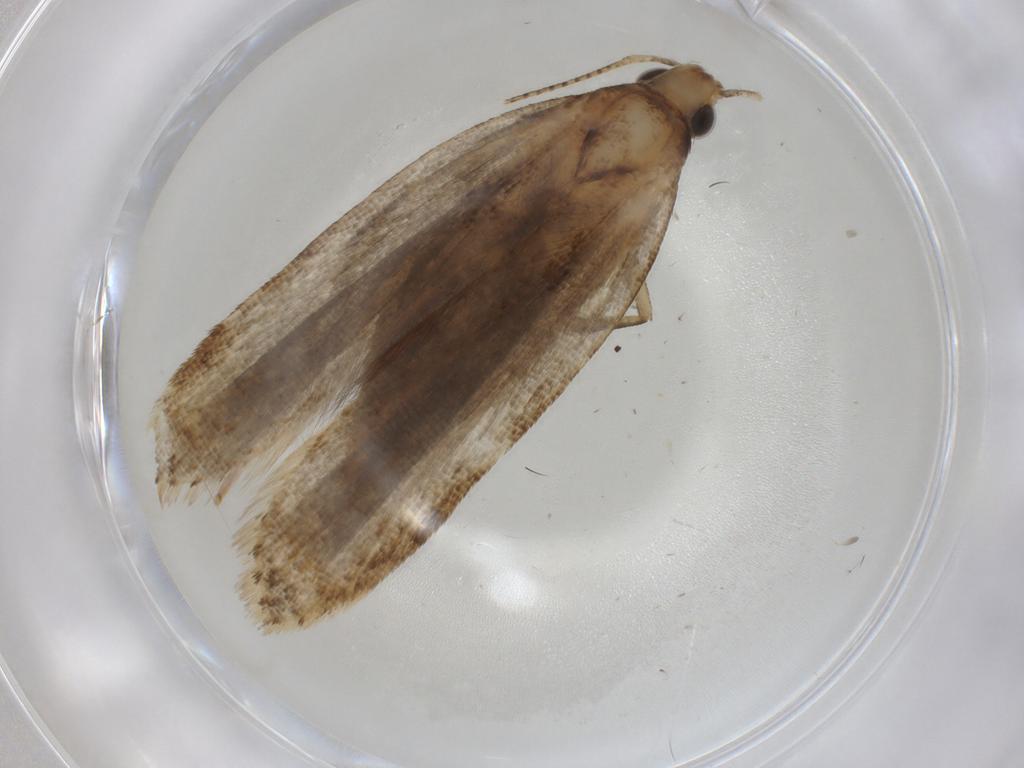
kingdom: Animalia
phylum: Arthropoda
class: Insecta
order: Lepidoptera
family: Gelechiidae
